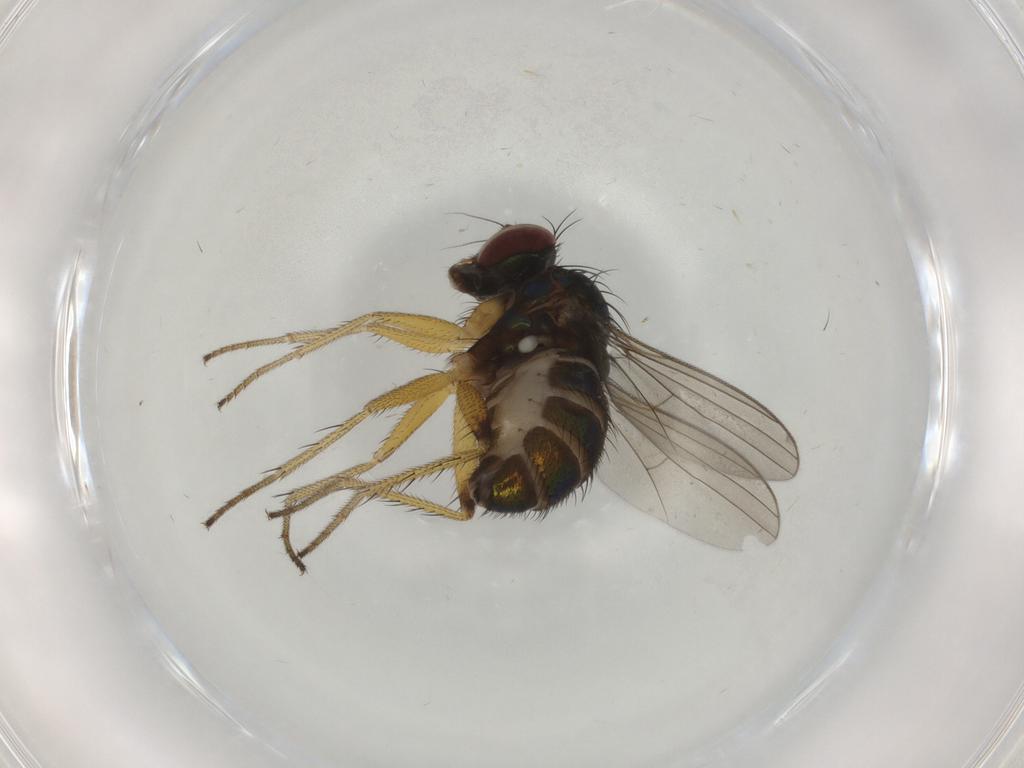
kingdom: Animalia
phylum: Arthropoda
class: Insecta
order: Diptera
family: Dolichopodidae
